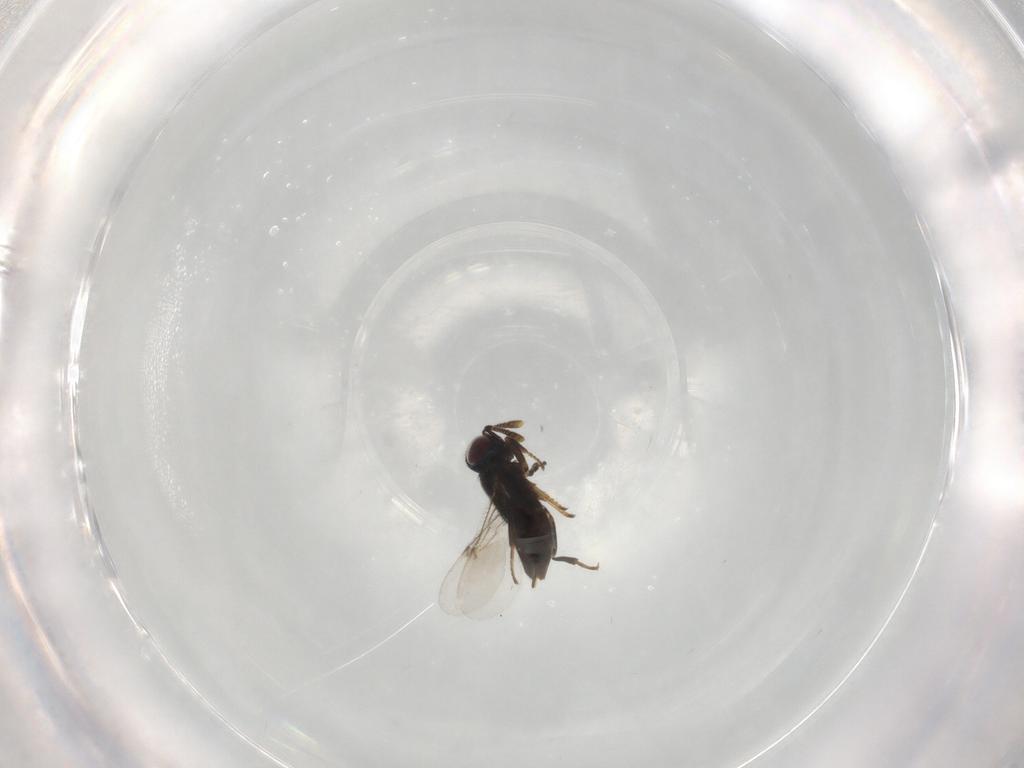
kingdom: Animalia
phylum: Arthropoda
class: Insecta
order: Hymenoptera
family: Encyrtidae
